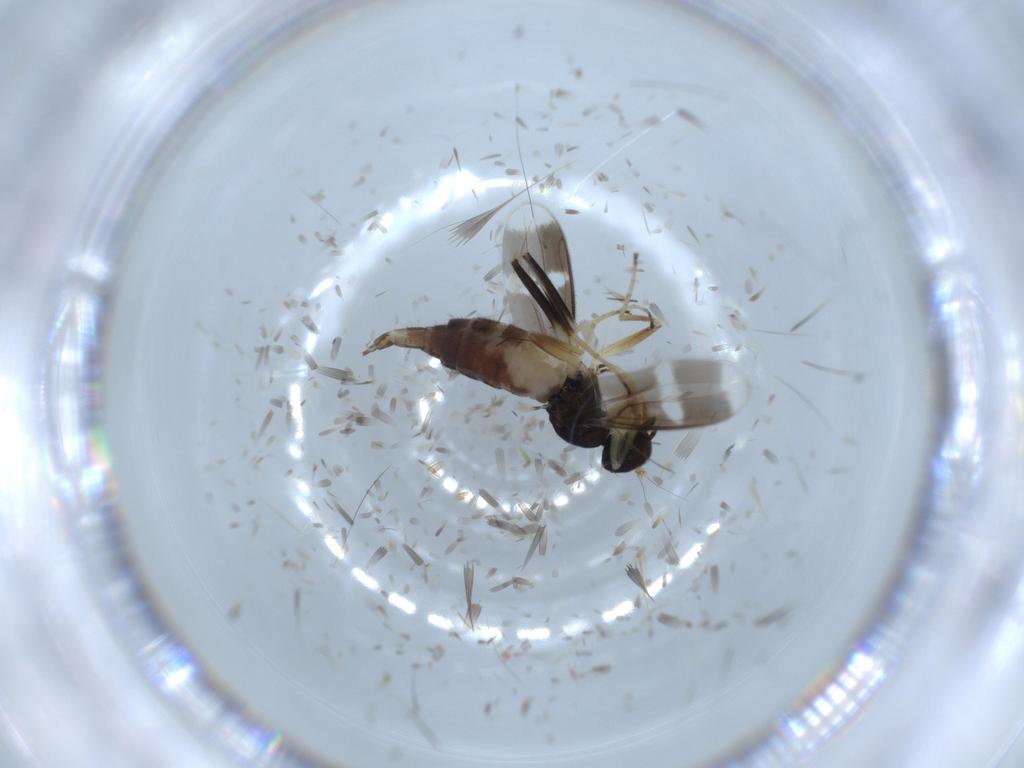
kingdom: Animalia
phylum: Arthropoda
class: Insecta
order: Diptera
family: Hybotidae
